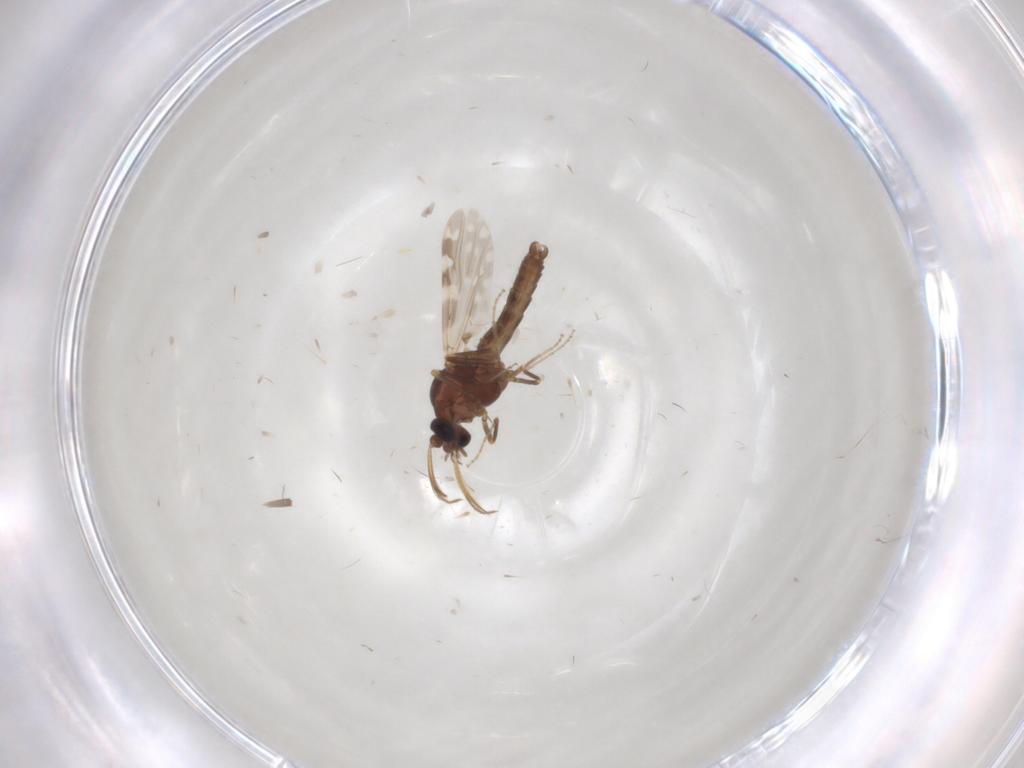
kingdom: Animalia
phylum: Arthropoda
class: Insecta
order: Diptera
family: Ceratopogonidae
